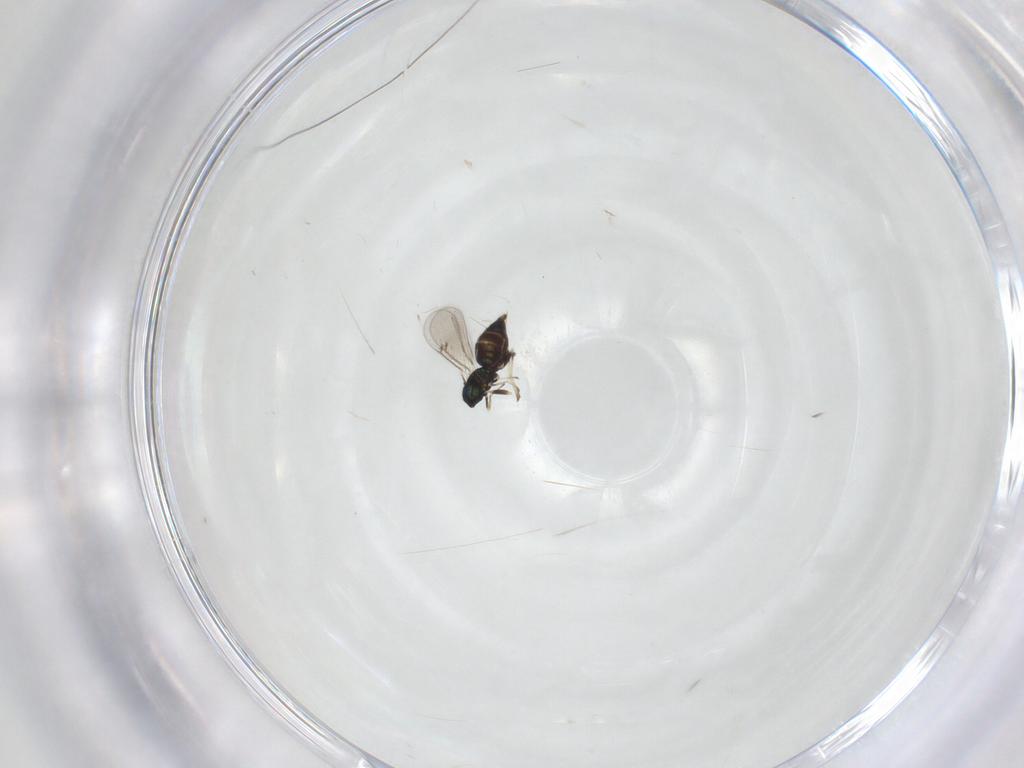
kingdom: Animalia
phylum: Arthropoda
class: Insecta
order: Hymenoptera
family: Eulophidae
